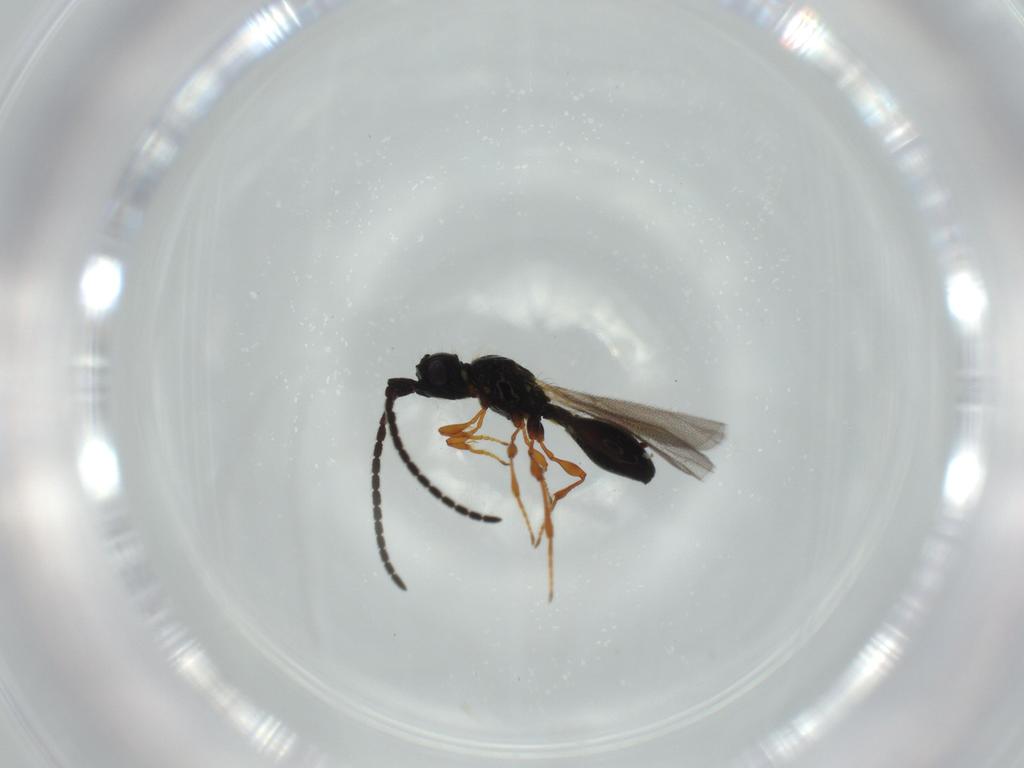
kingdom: Animalia
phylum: Arthropoda
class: Insecta
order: Hymenoptera
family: Diapriidae
